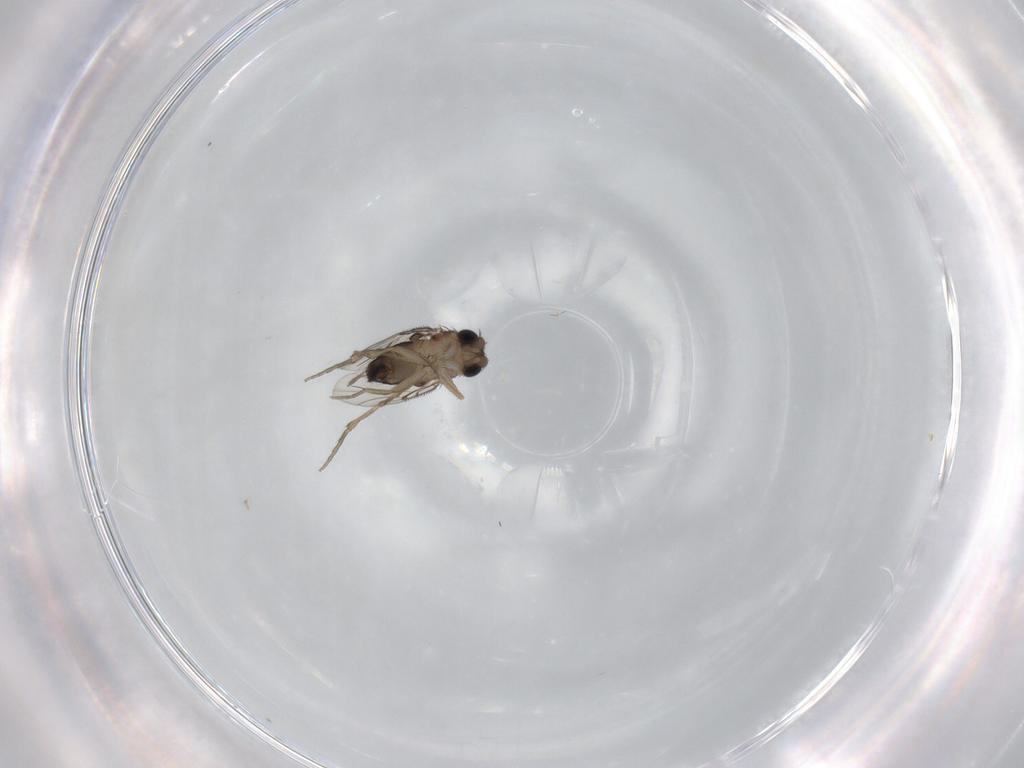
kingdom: Animalia
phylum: Arthropoda
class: Insecta
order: Diptera
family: Phoridae
